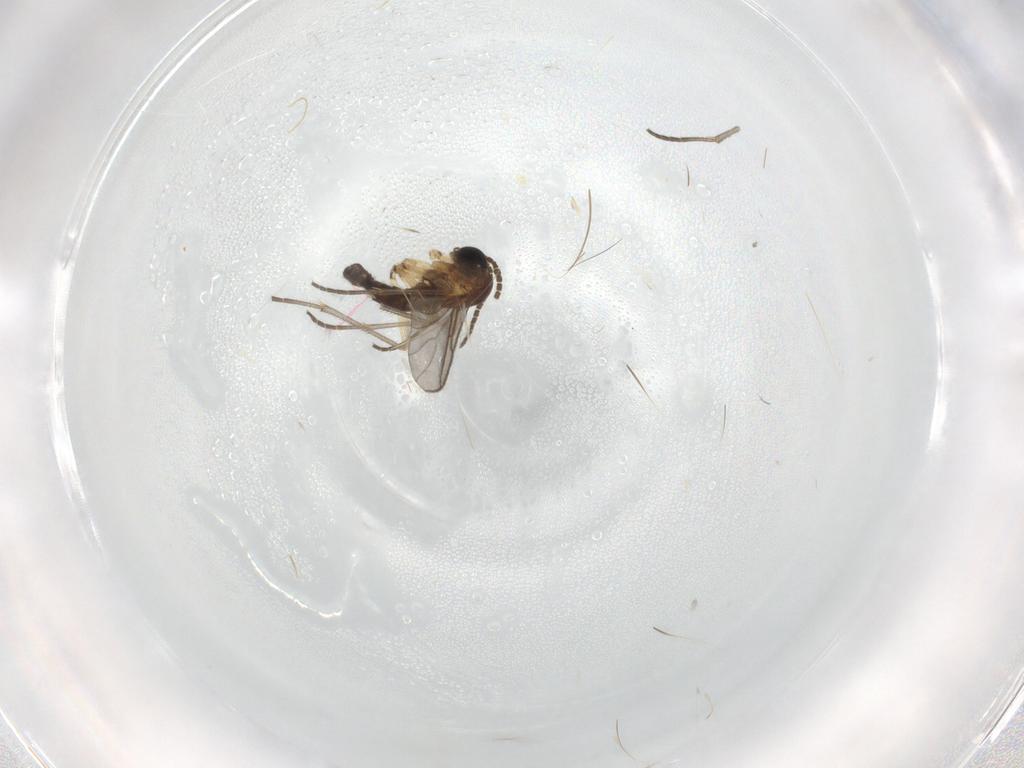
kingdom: Animalia
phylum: Arthropoda
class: Insecta
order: Diptera
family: Sciaridae
